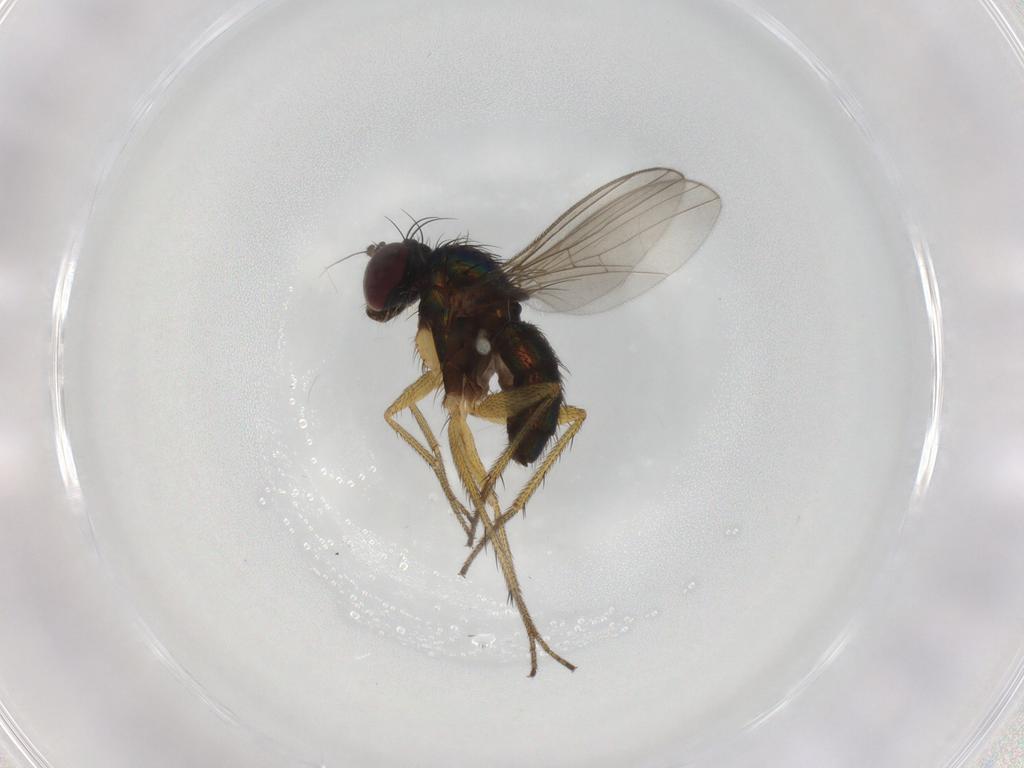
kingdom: Animalia
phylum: Arthropoda
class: Insecta
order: Diptera
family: Dolichopodidae
